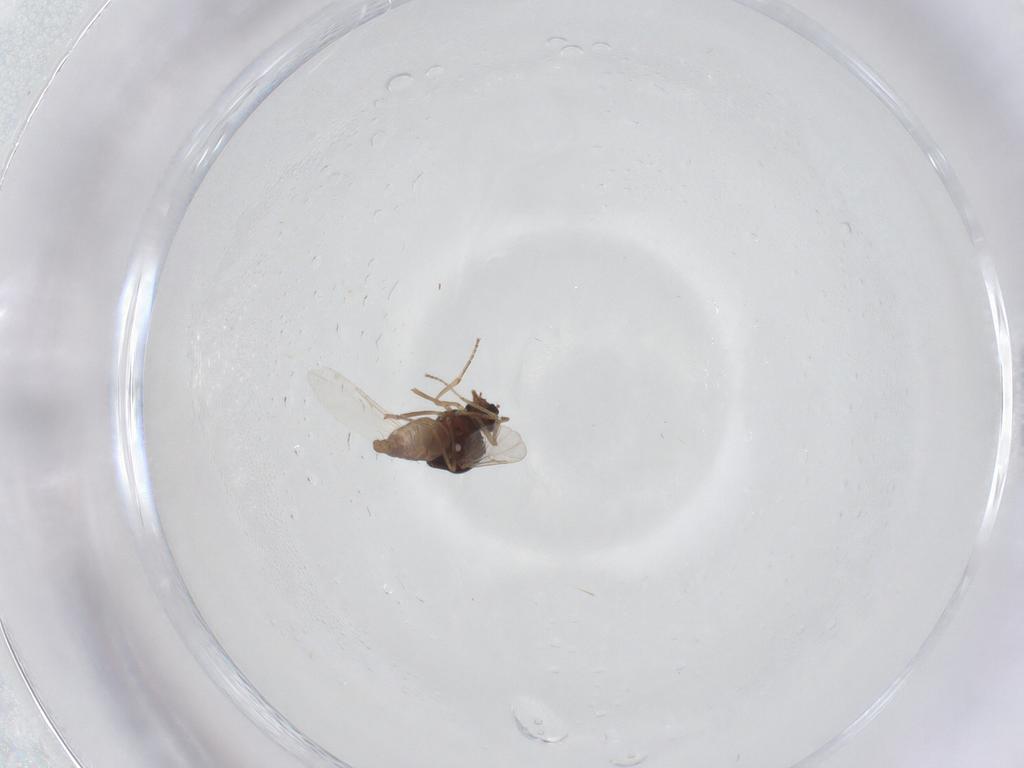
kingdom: Animalia
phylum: Arthropoda
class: Insecta
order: Diptera
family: Ceratopogonidae
